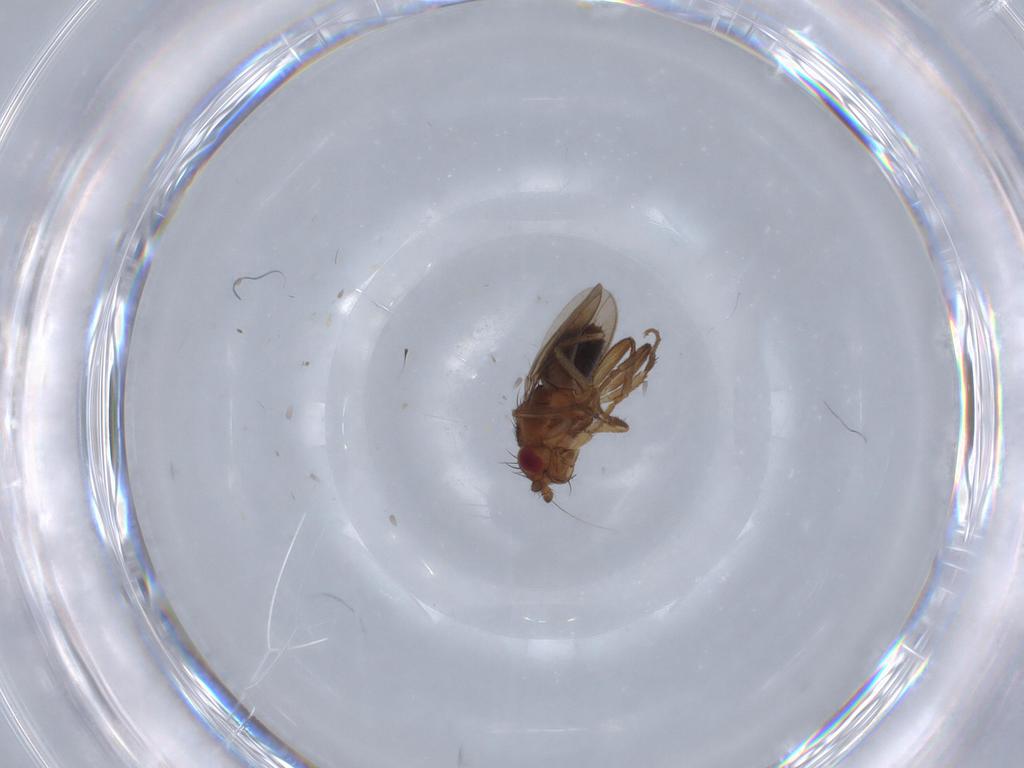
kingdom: Animalia
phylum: Arthropoda
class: Insecta
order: Diptera
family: Sphaeroceridae
